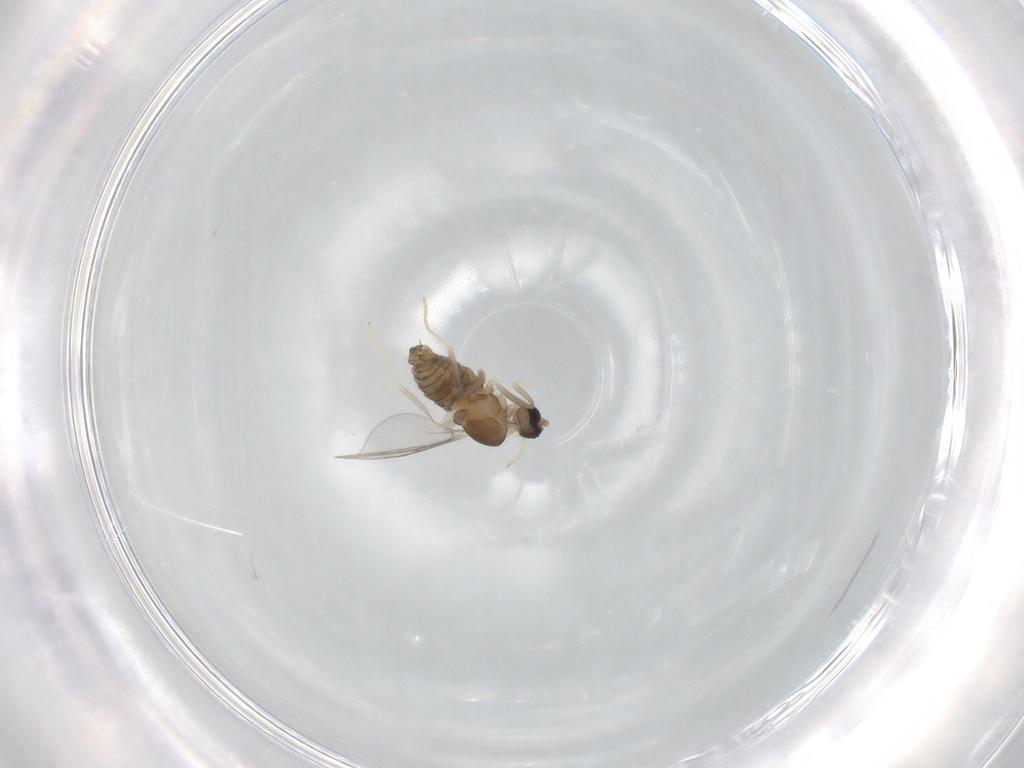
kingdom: Animalia
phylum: Arthropoda
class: Insecta
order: Diptera
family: Cecidomyiidae
